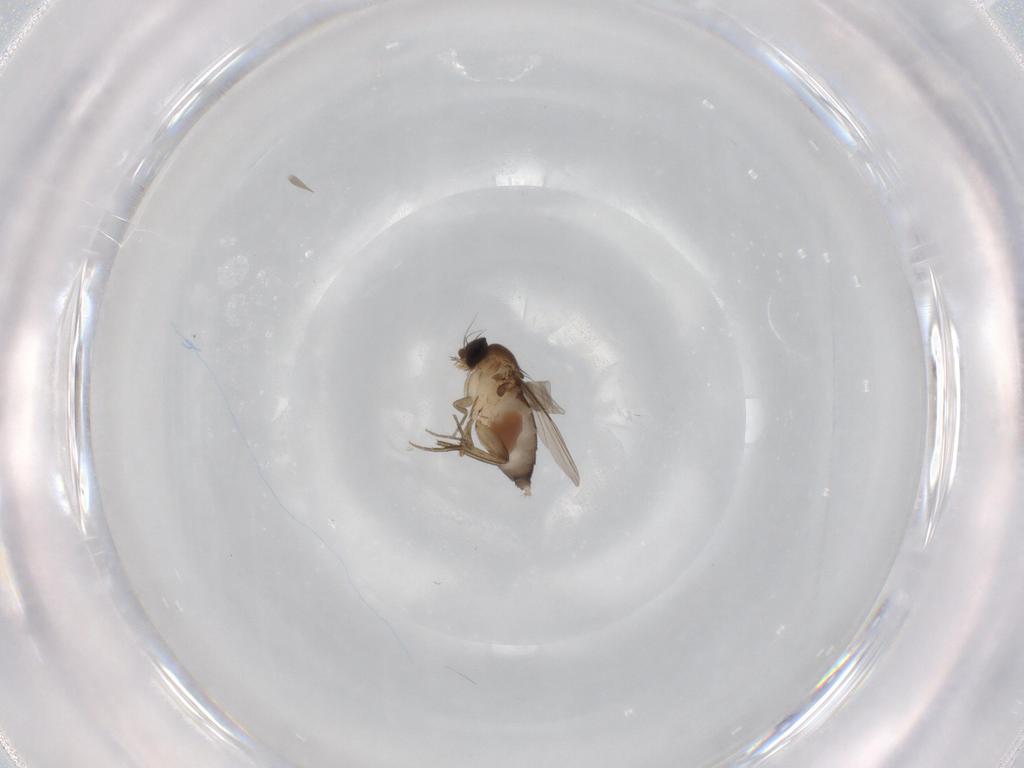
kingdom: Animalia
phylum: Arthropoda
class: Insecta
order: Diptera
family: Phoridae
